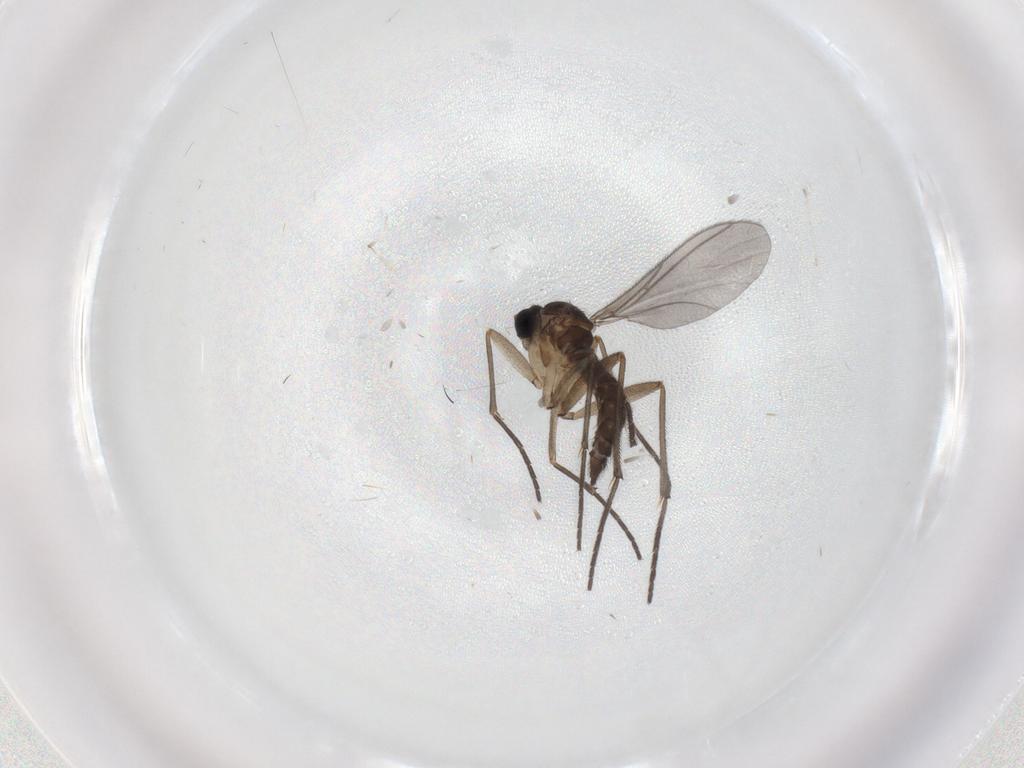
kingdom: Animalia
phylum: Arthropoda
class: Insecta
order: Diptera
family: Sciaridae
